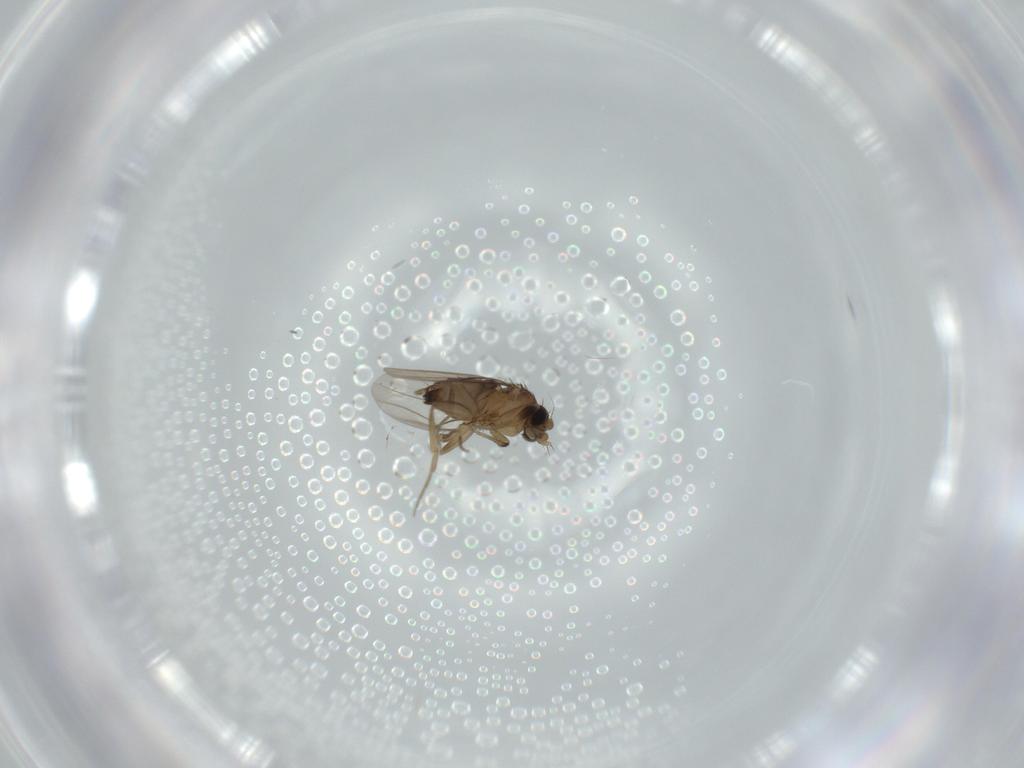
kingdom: Animalia
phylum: Arthropoda
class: Insecta
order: Diptera
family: Phoridae
